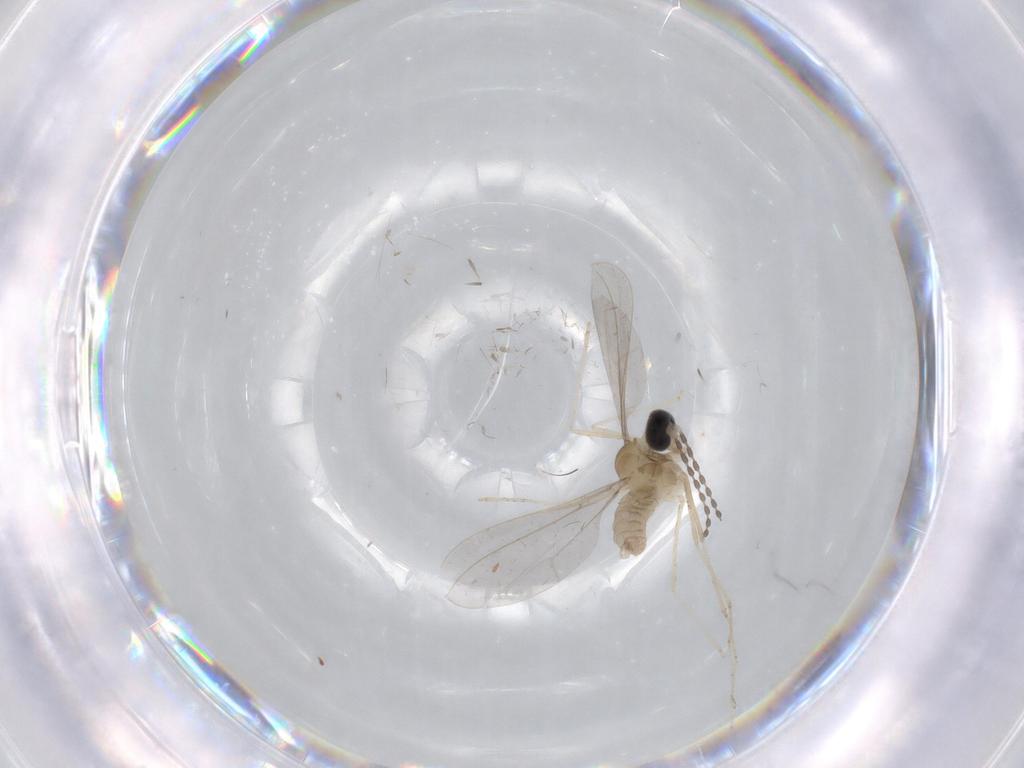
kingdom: Animalia
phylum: Arthropoda
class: Insecta
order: Diptera
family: Cecidomyiidae
